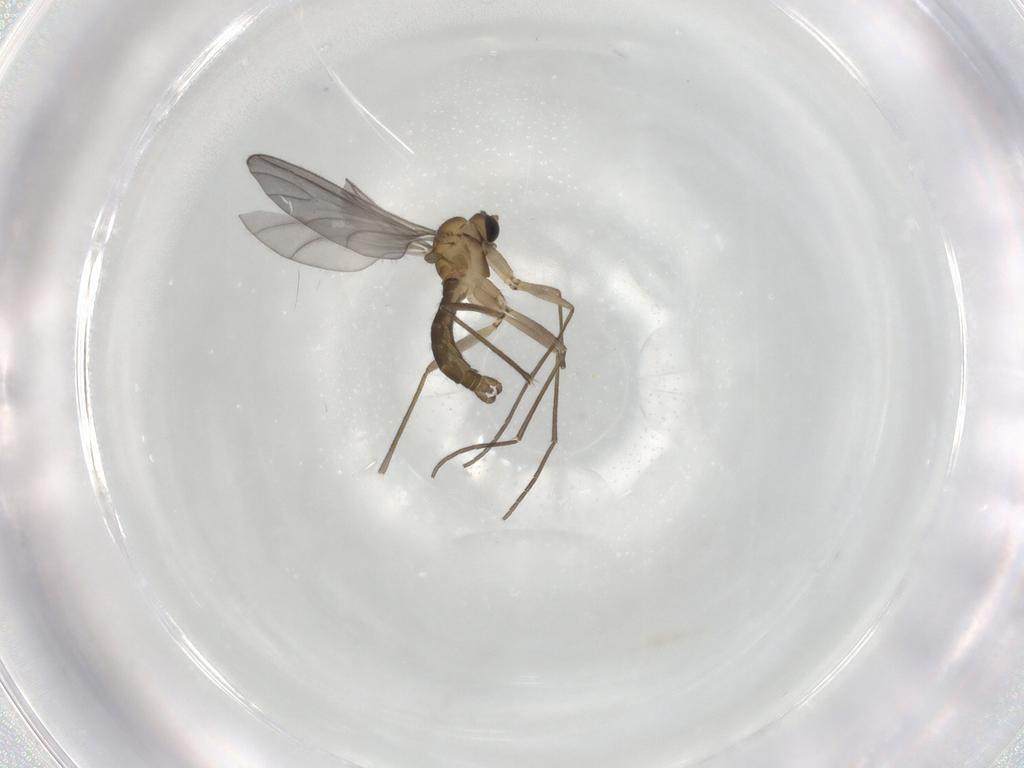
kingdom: Animalia
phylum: Arthropoda
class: Insecta
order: Diptera
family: Sciaridae
